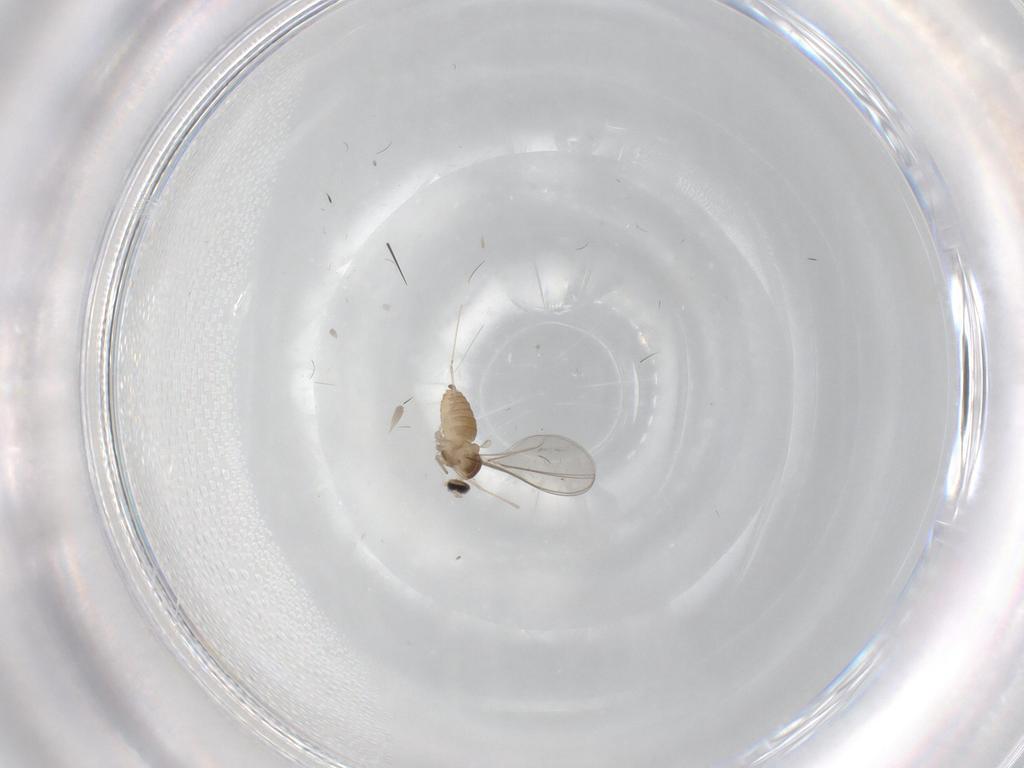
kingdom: Animalia
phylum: Arthropoda
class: Insecta
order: Diptera
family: Cecidomyiidae
